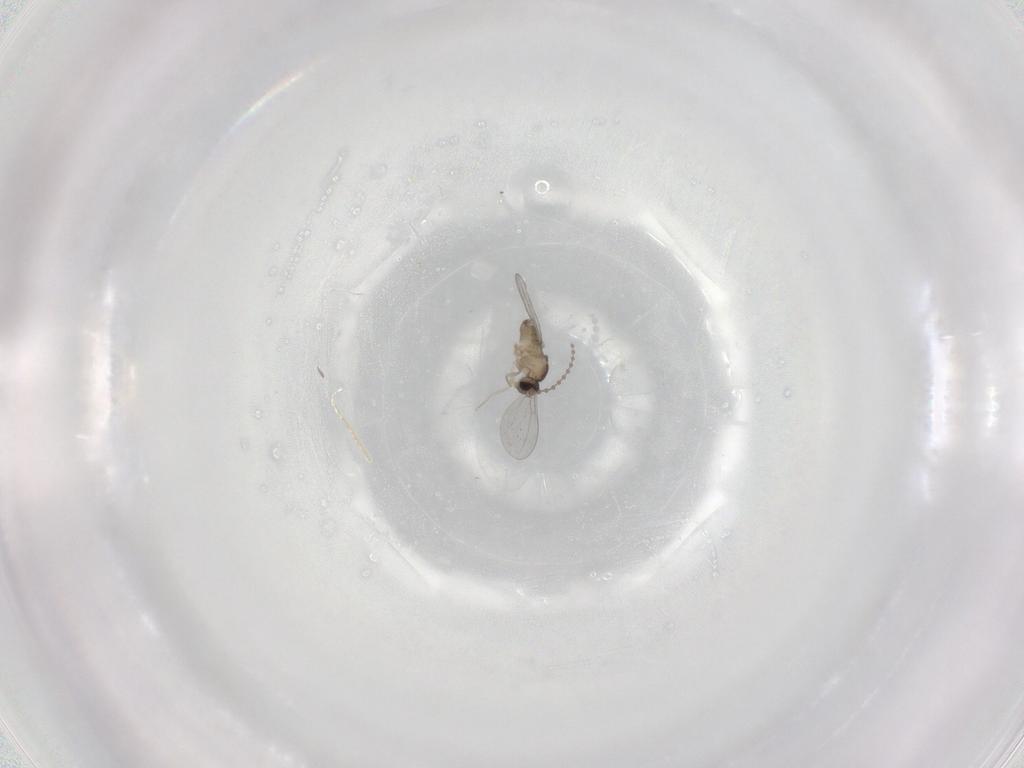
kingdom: Animalia
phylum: Arthropoda
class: Insecta
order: Diptera
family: Cecidomyiidae
